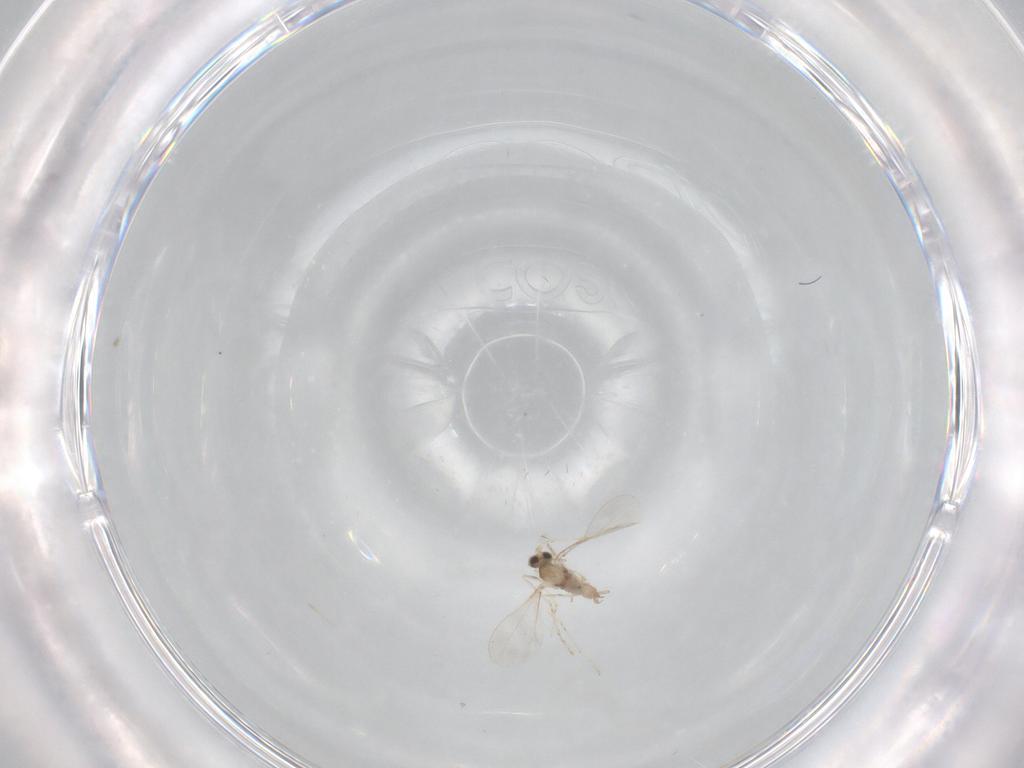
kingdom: Animalia
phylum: Arthropoda
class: Insecta
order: Diptera
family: Cecidomyiidae
